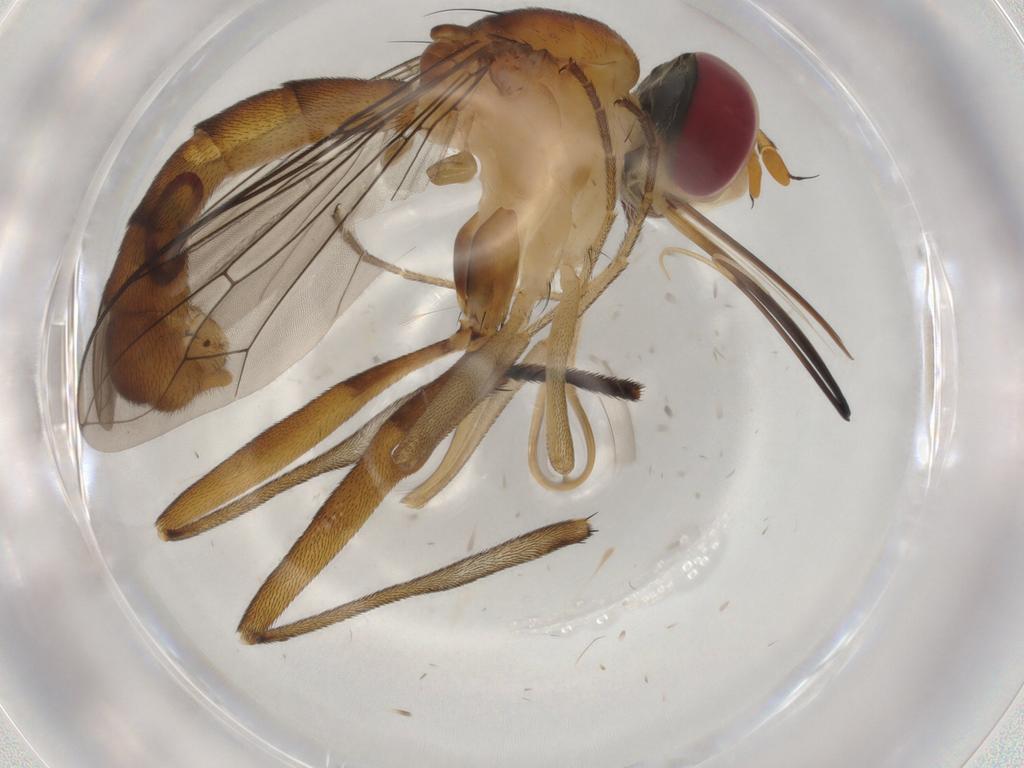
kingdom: Animalia
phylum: Arthropoda
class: Insecta
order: Diptera
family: Conopidae
